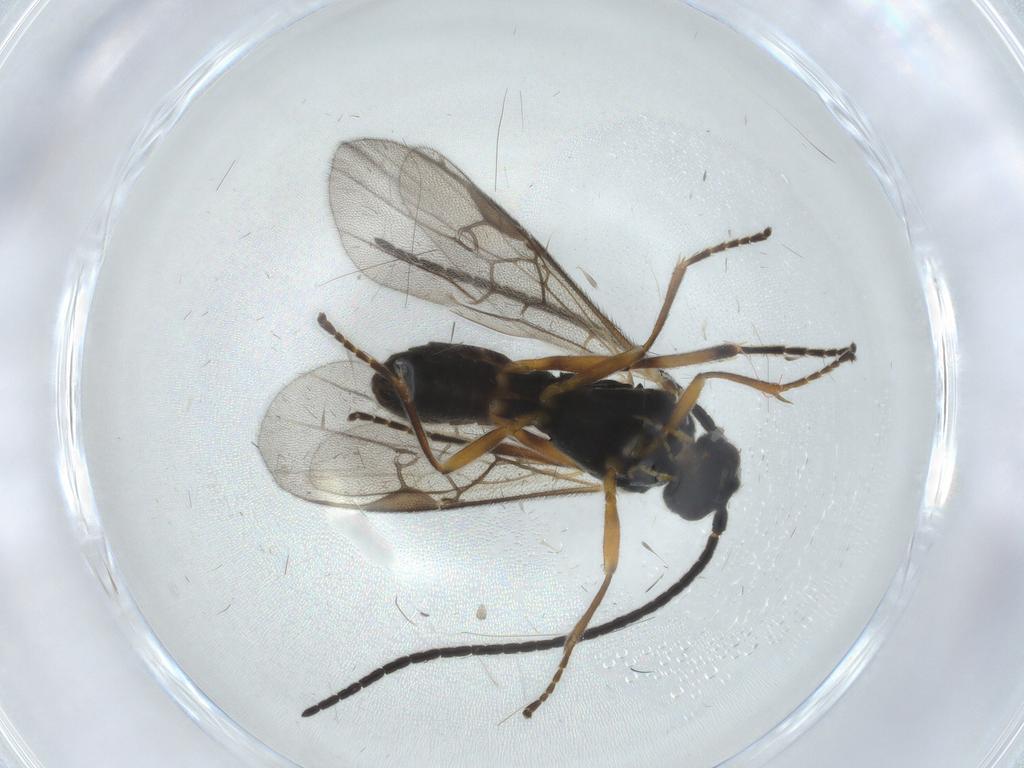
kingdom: Animalia
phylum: Arthropoda
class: Insecta
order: Hymenoptera
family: Braconidae
